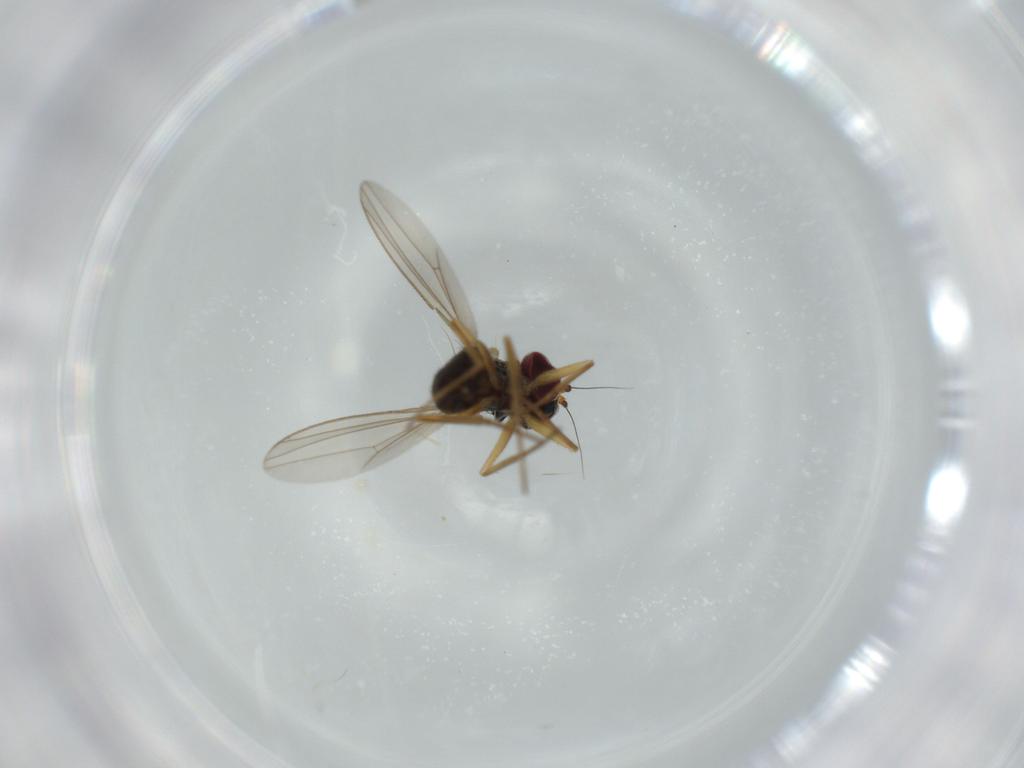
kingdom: Animalia
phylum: Arthropoda
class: Insecta
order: Diptera
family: Dolichopodidae
